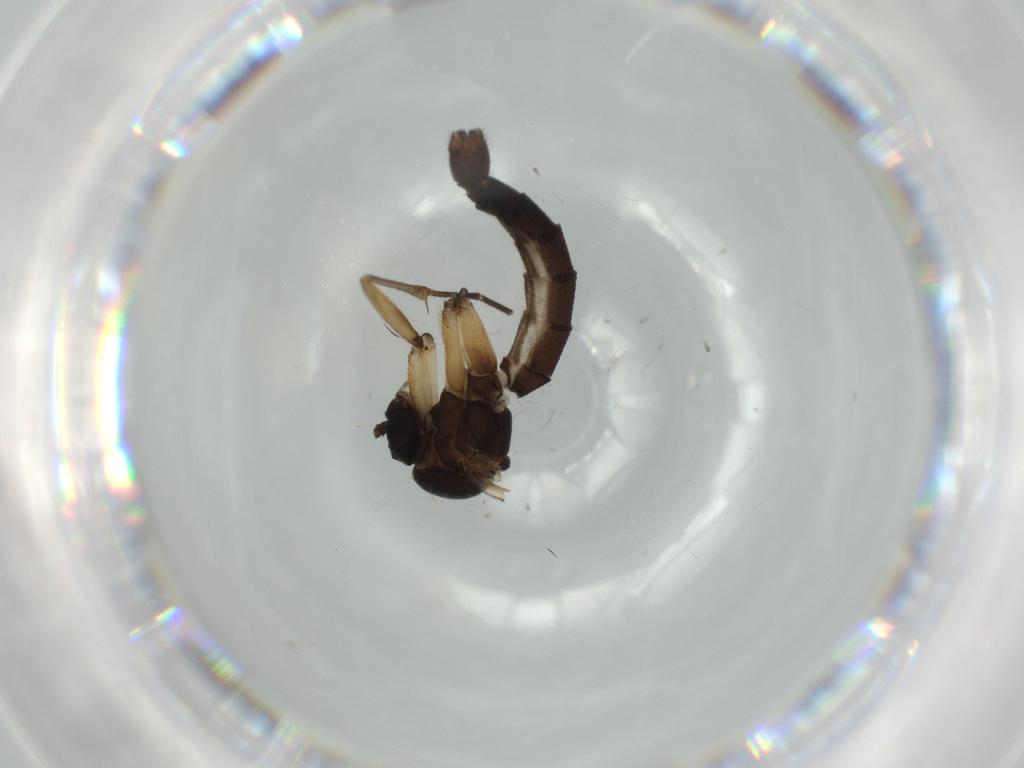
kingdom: Animalia
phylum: Arthropoda
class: Insecta
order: Diptera
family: Mycetophilidae
